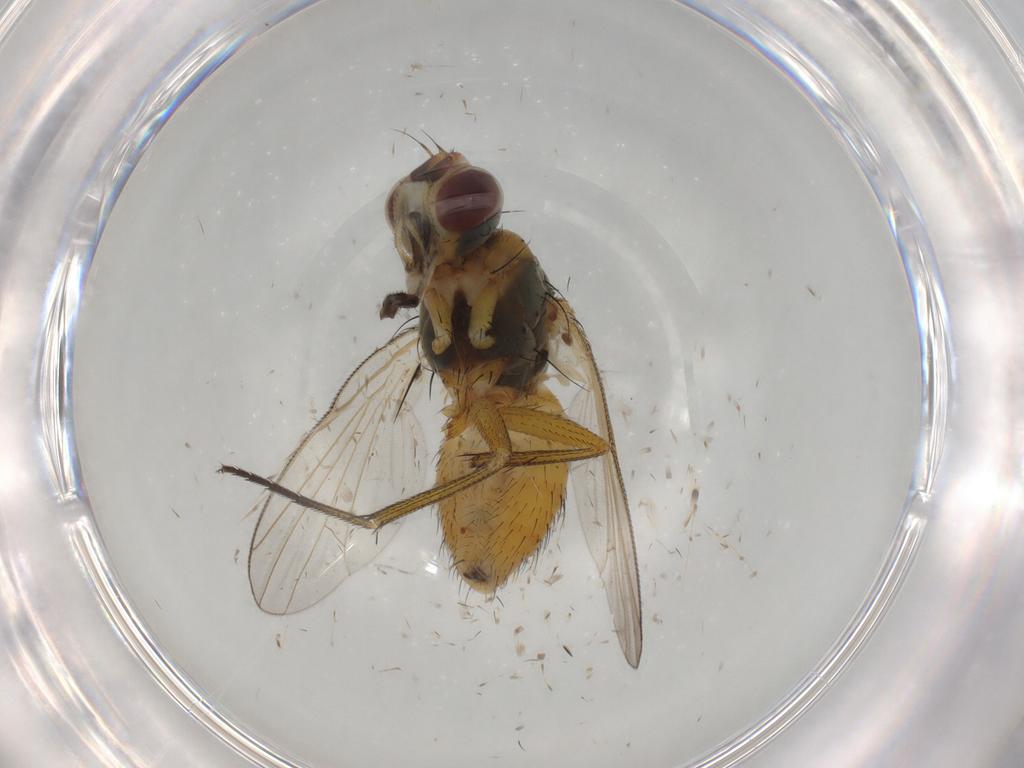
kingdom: Animalia
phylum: Arthropoda
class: Insecta
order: Diptera
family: Muscidae
